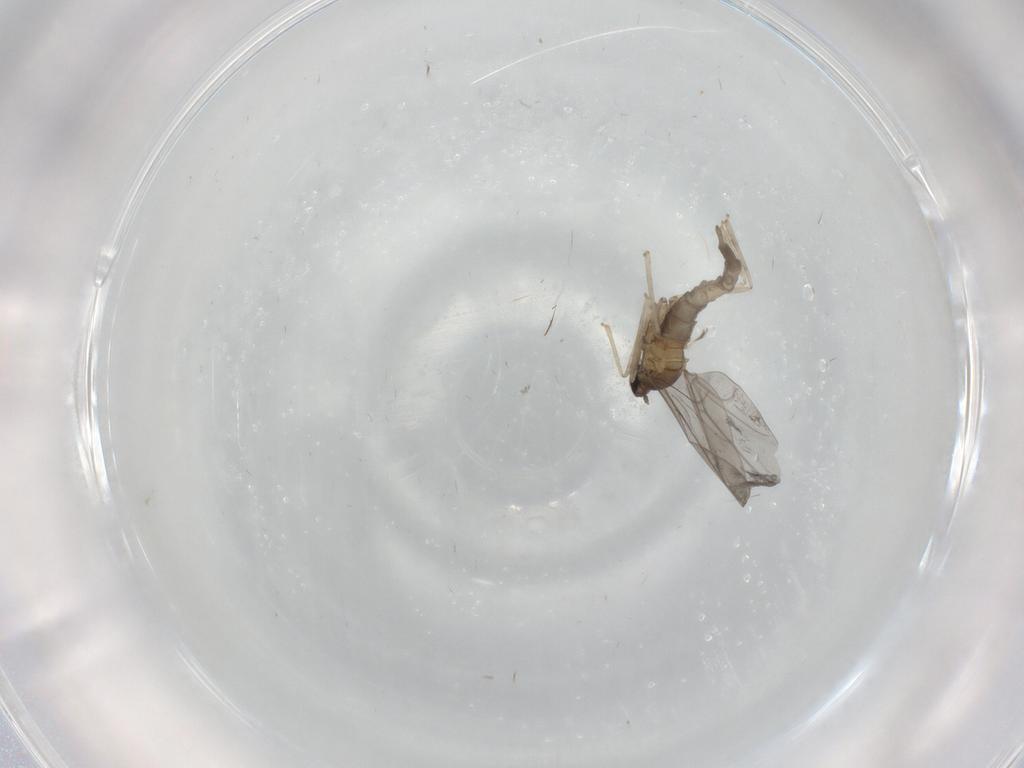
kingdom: Animalia
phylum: Arthropoda
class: Insecta
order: Diptera
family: Cecidomyiidae
